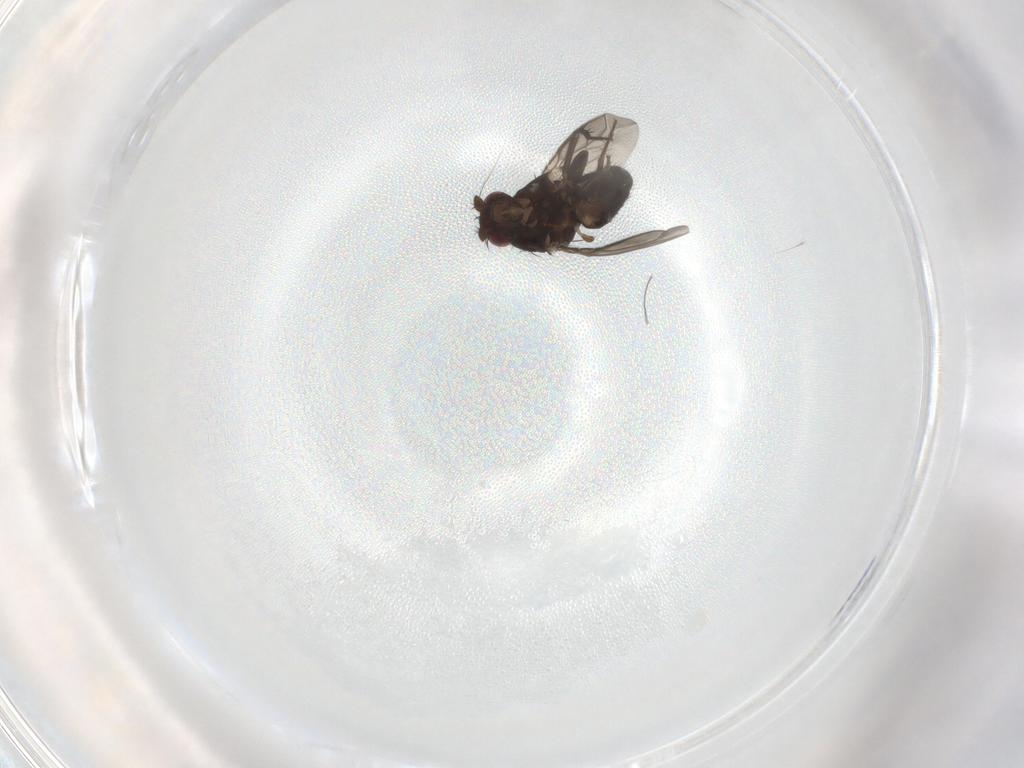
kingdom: Animalia
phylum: Arthropoda
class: Insecta
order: Diptera
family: Sphaeroceridae
